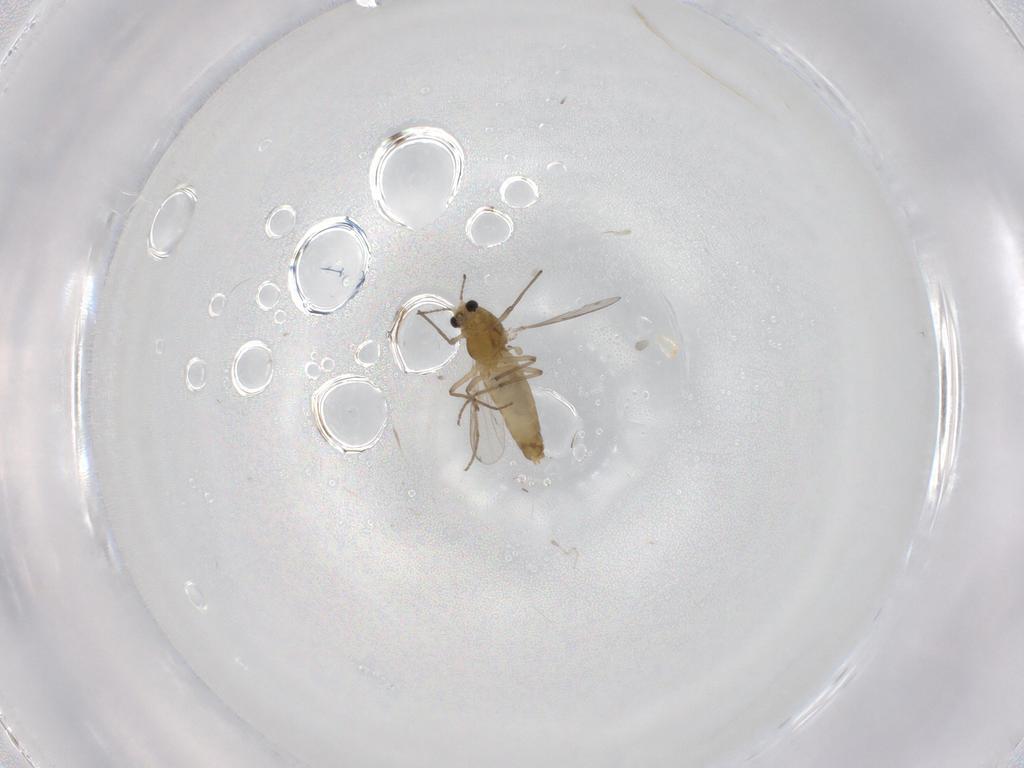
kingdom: Animalia
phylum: Arthropoda
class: Insecta
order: Diptera
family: Chironomidae
